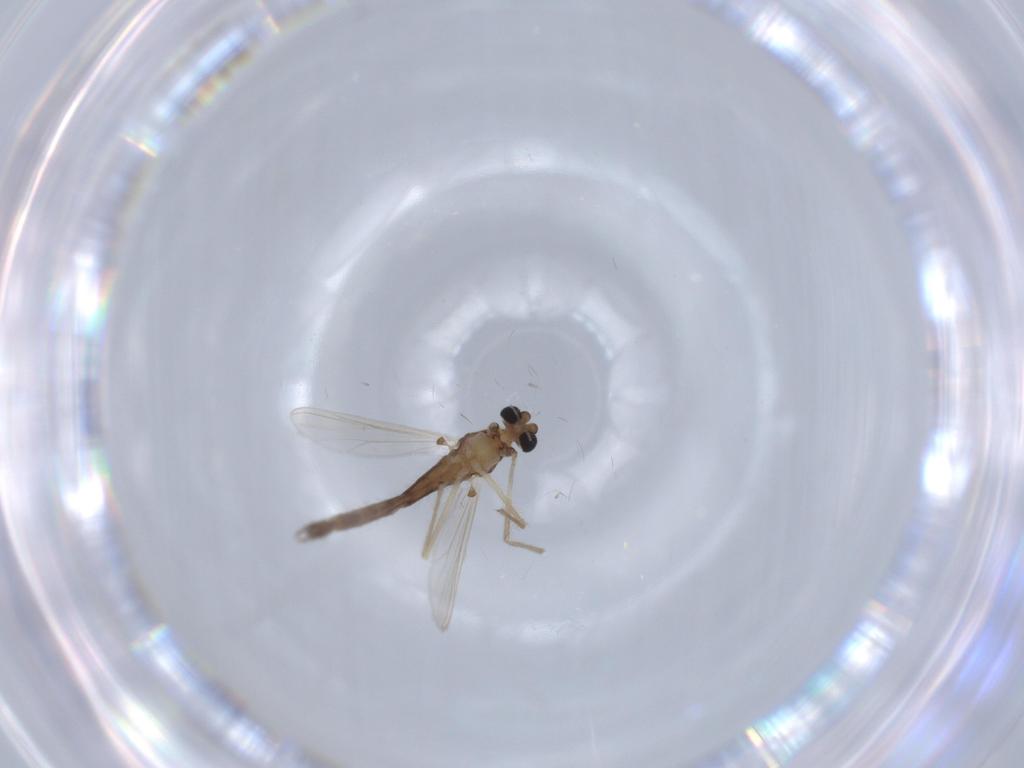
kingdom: Animalia
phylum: Arthropoda
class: Insecta
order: Diptera
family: Chironomidae
